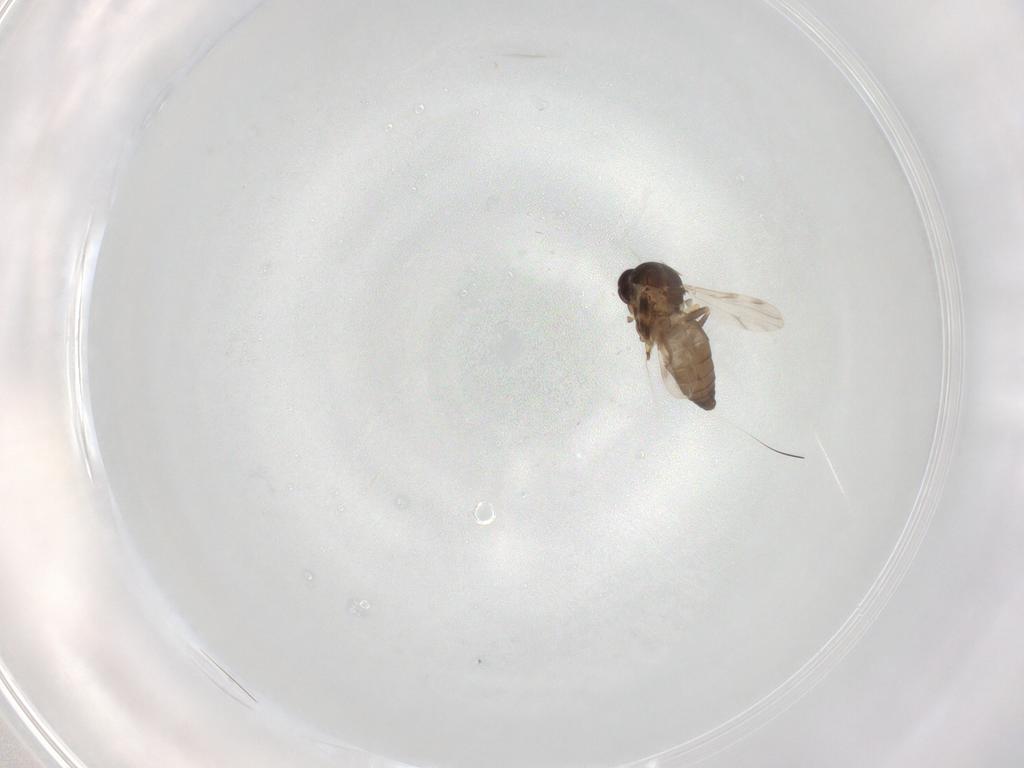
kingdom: Animalia
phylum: Arthropoda
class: Insecta
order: Diptera
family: Ceratopogonidae
